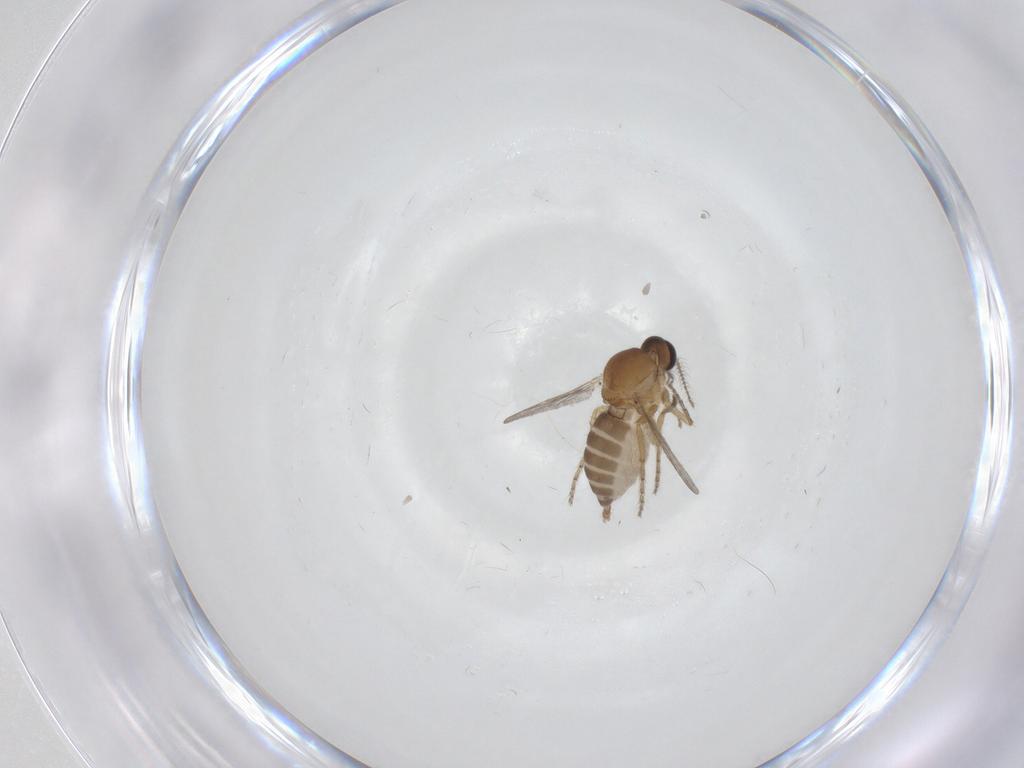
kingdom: Animalia
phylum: Arthropoda
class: Insecta
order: Diptera
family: Ceratopogonidae
